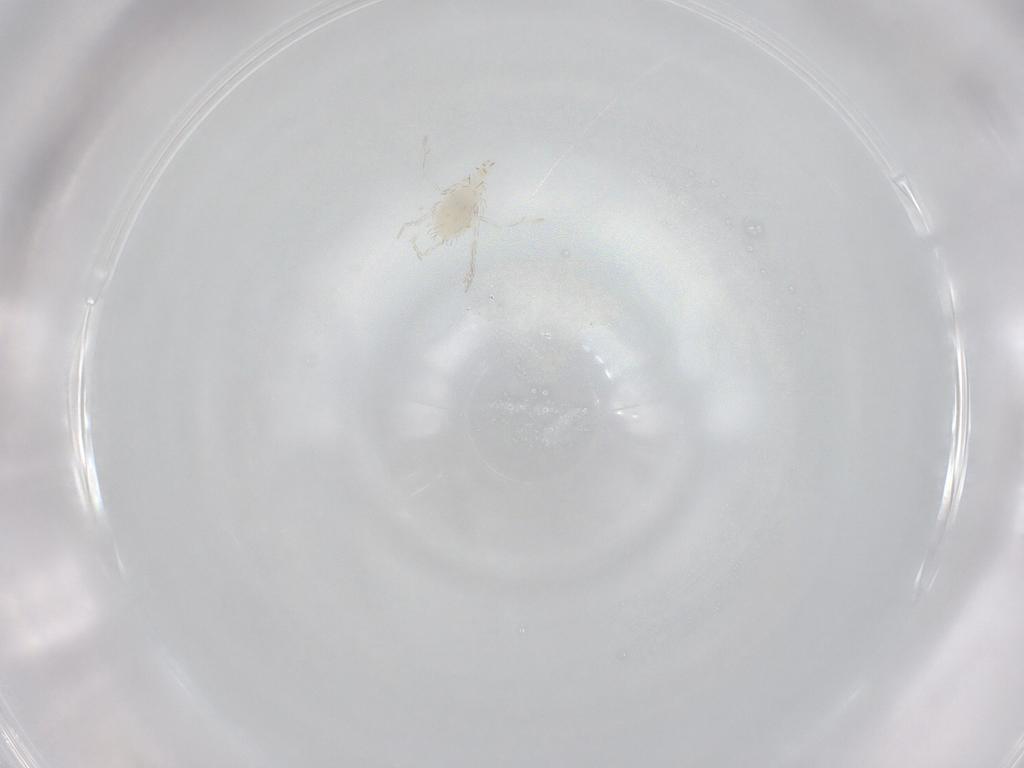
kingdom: Animalia
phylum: Arthropoda
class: Arachnida
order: Trombidiformes
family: Smarididae
